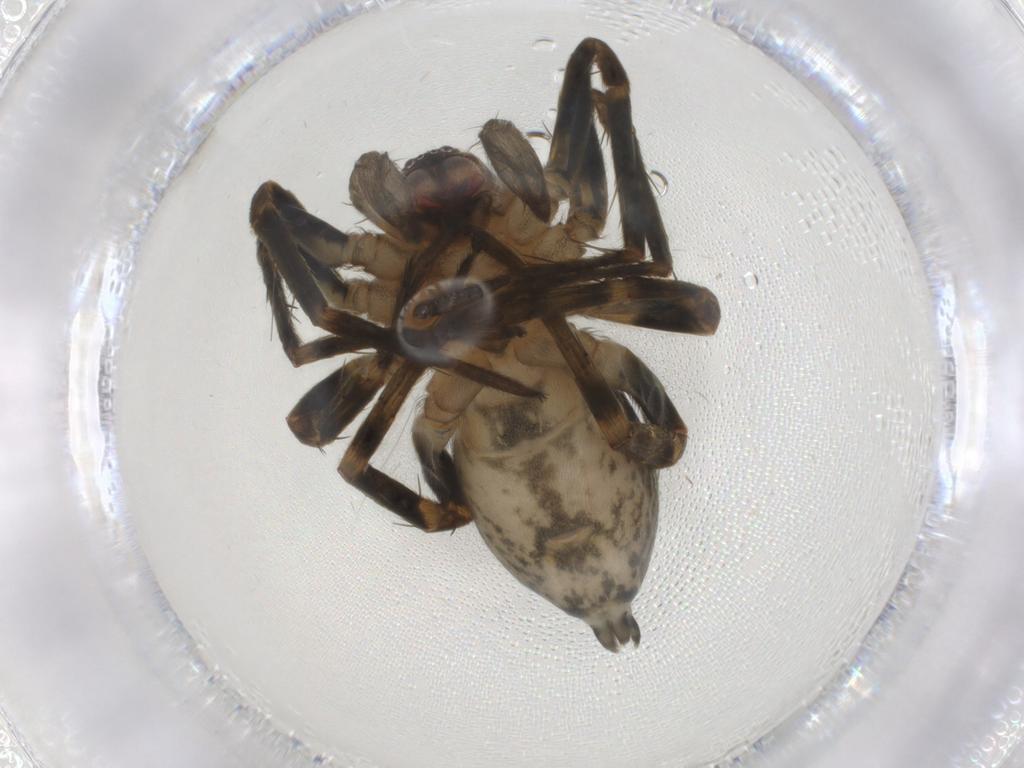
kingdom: Animalia
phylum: Arthropoda
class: Arachnida
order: Araneae
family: Anyphaenidae
